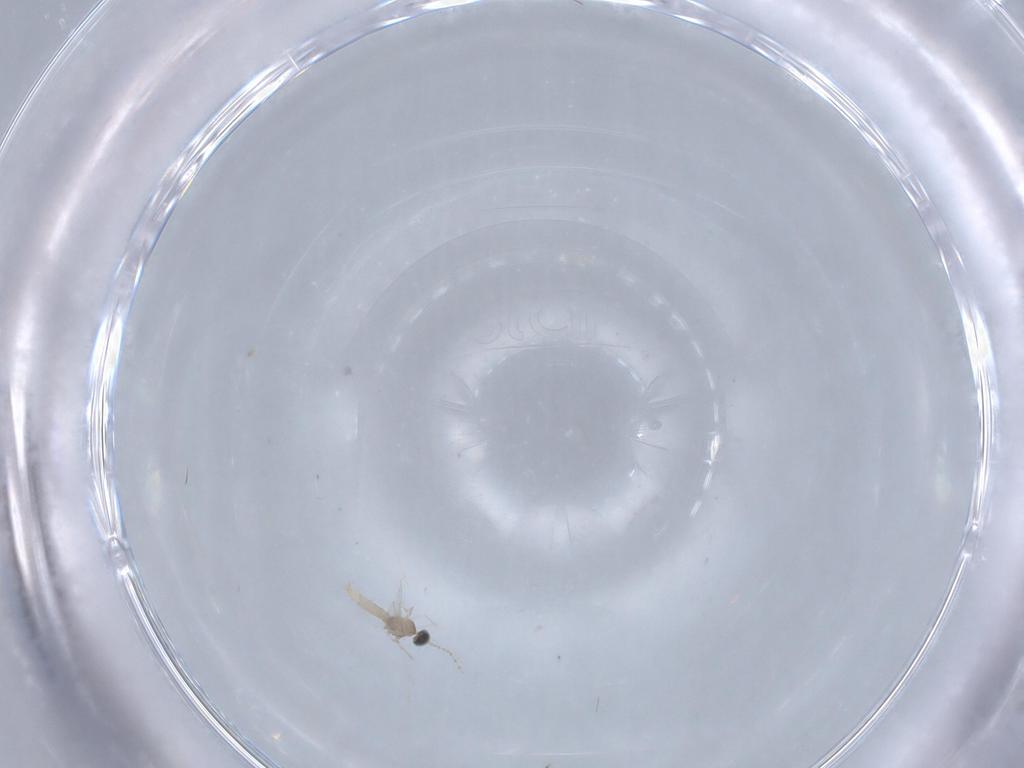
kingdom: Animalia
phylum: Arthropoda
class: Insecta
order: Diptera
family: Cecidomyiidae
